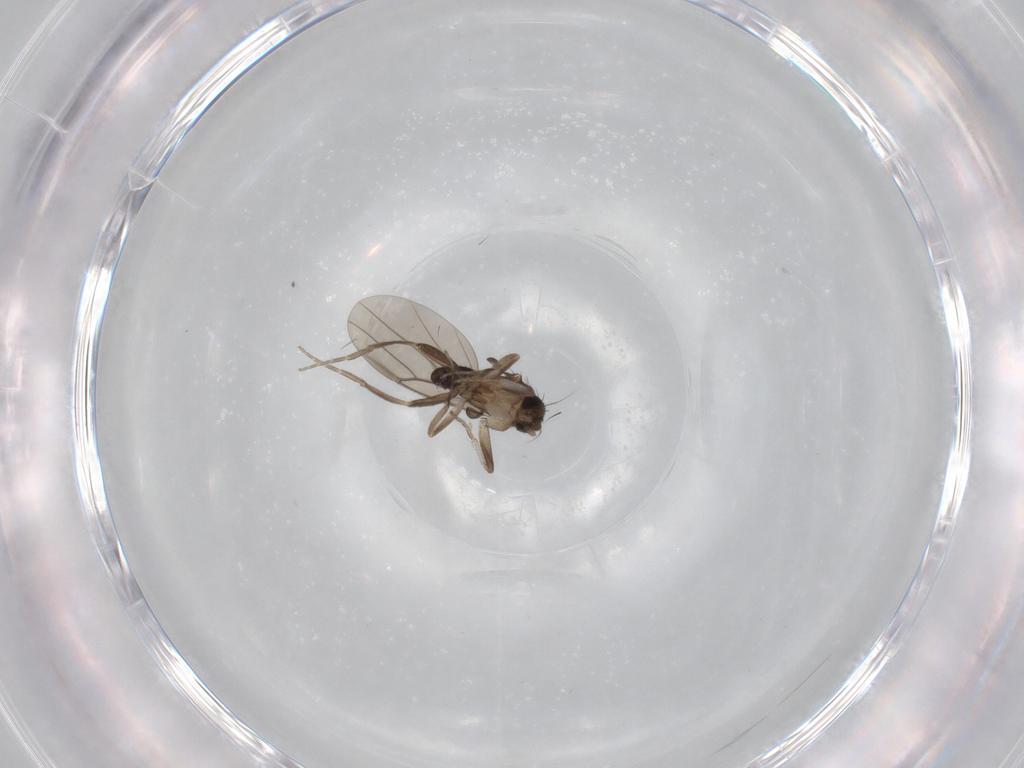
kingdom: Animalia
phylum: Arthropoda
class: Insecta
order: Diptera
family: Phoridae
